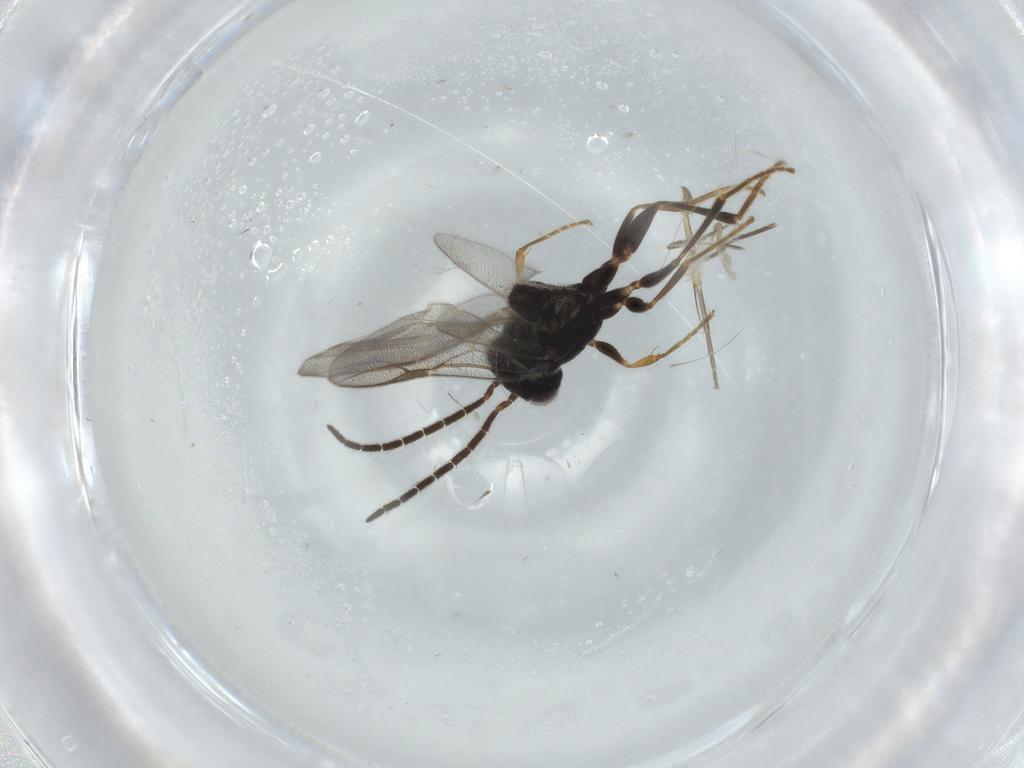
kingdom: Animalia
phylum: Arthropoda
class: Insecta
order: Hymenoptera
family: Dryinidae
